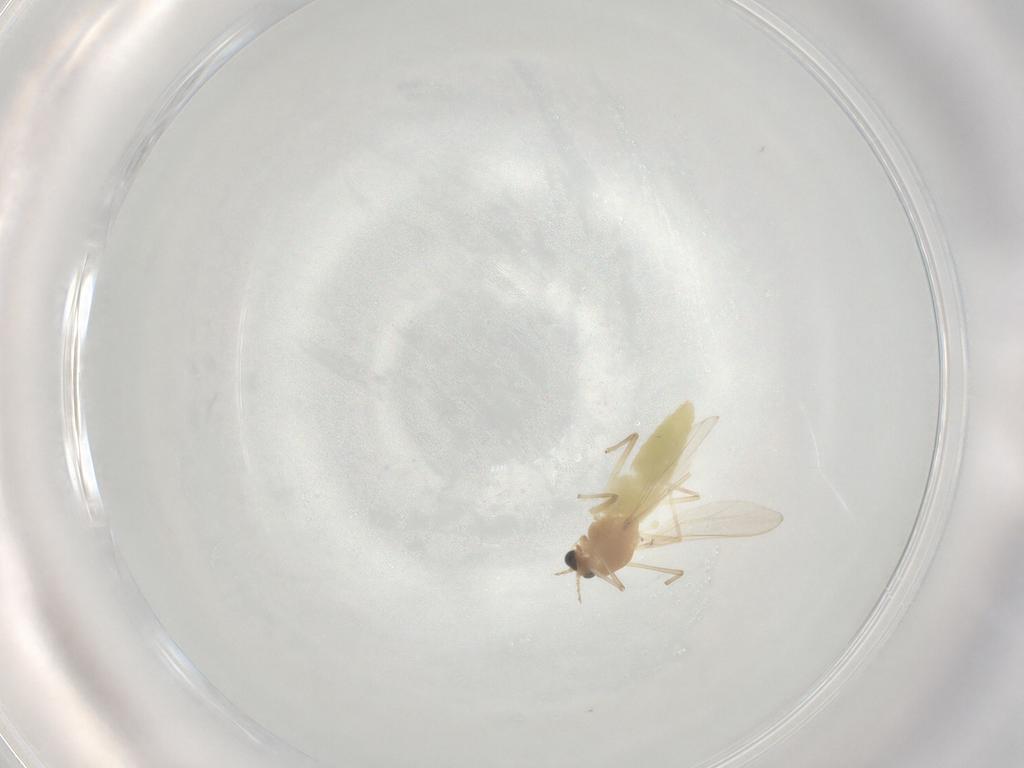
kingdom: Animalia
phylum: Arthropoda
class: Insecta
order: Diptera
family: Chironomidae
